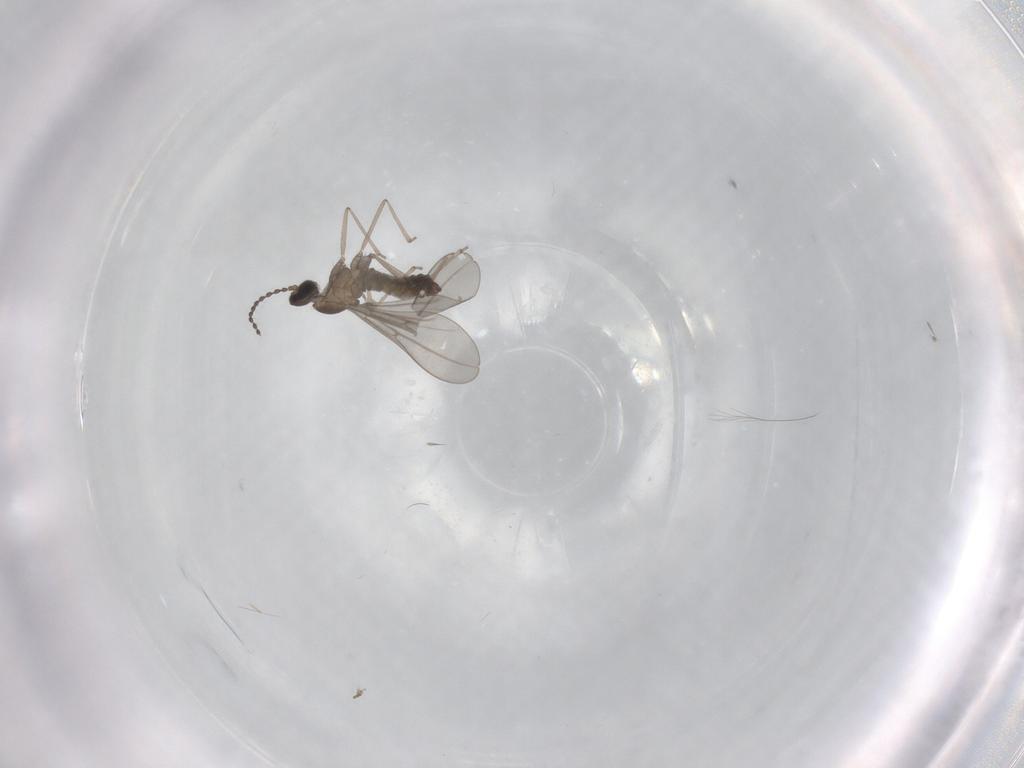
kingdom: Animalia
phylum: Arthropoda
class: Insecta
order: Diptera
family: Cecidomyiidae
